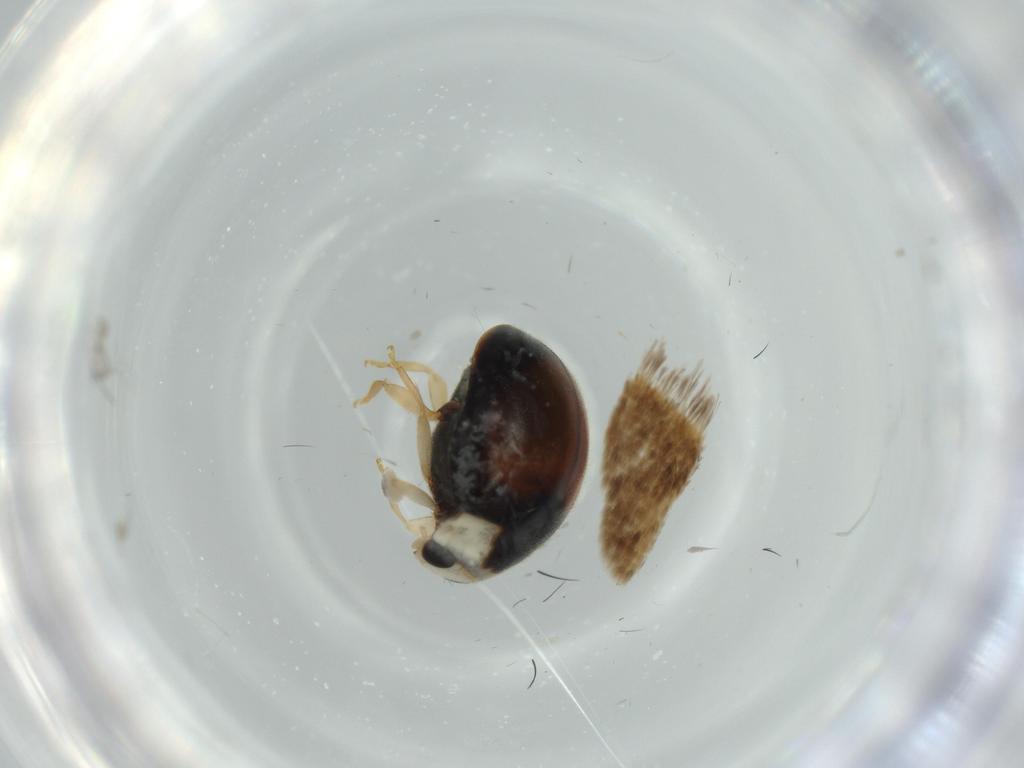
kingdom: Animalia
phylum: Arthropoda
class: Insecta
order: Coleoptera
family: Coccinellidae
